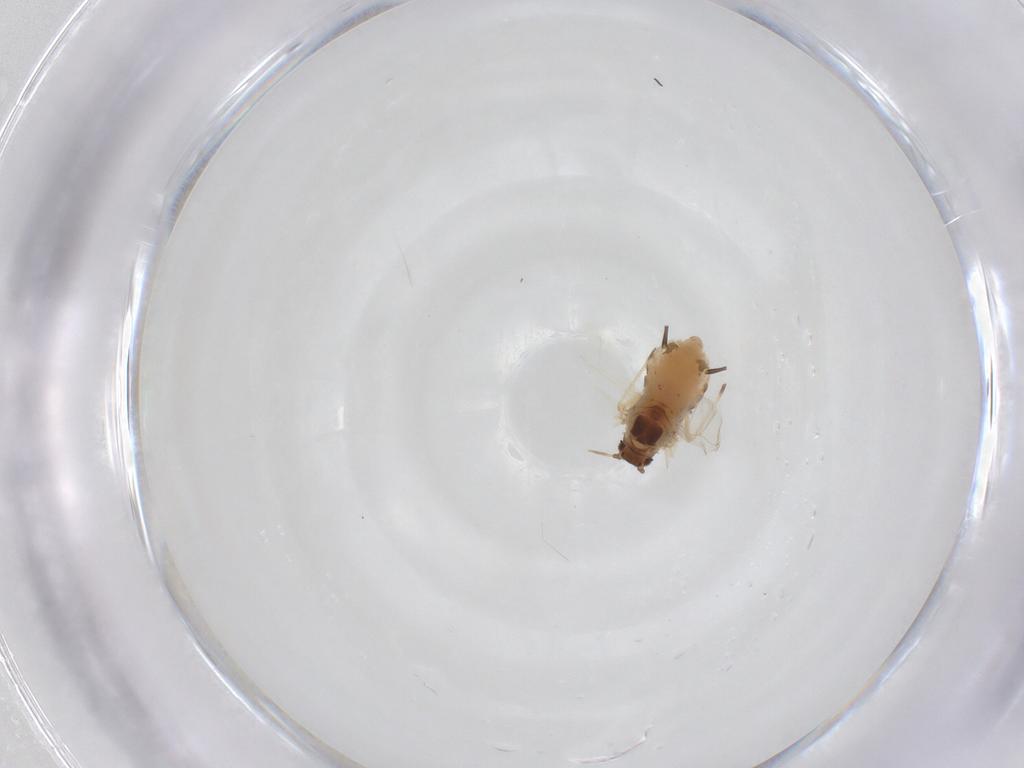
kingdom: Animalia
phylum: Arthropoda
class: Insecta
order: Hemiptera
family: Aphididae
